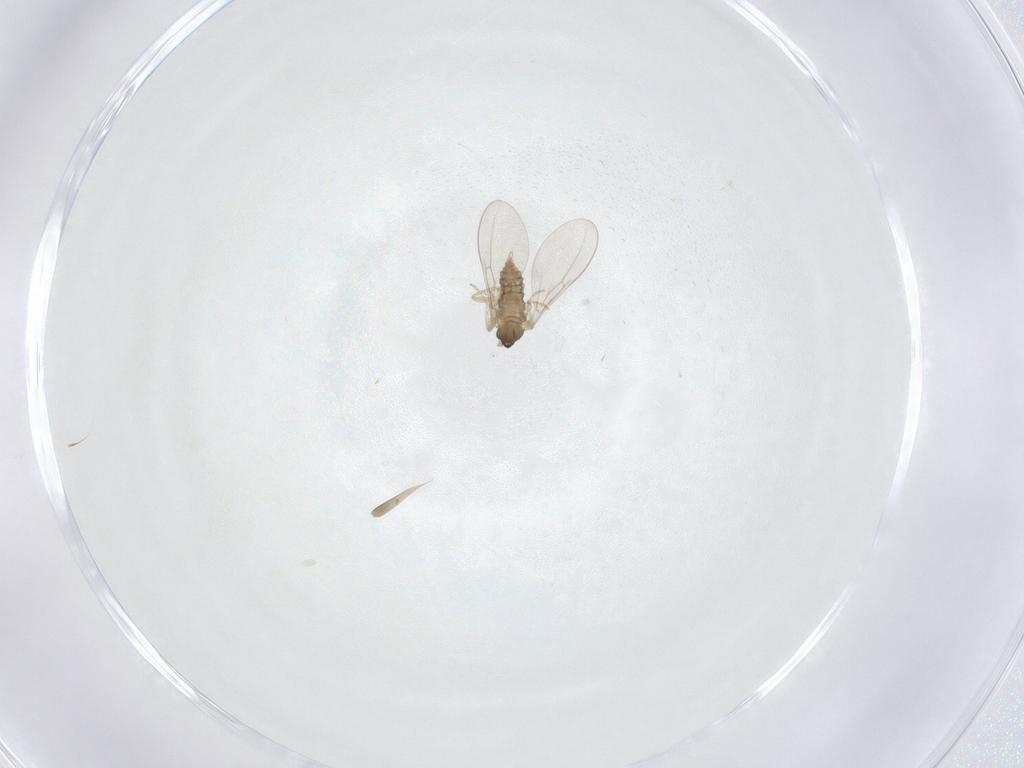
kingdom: Animalia
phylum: Arthropoda
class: Insecta
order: Diptera
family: Cecidomyiidae
